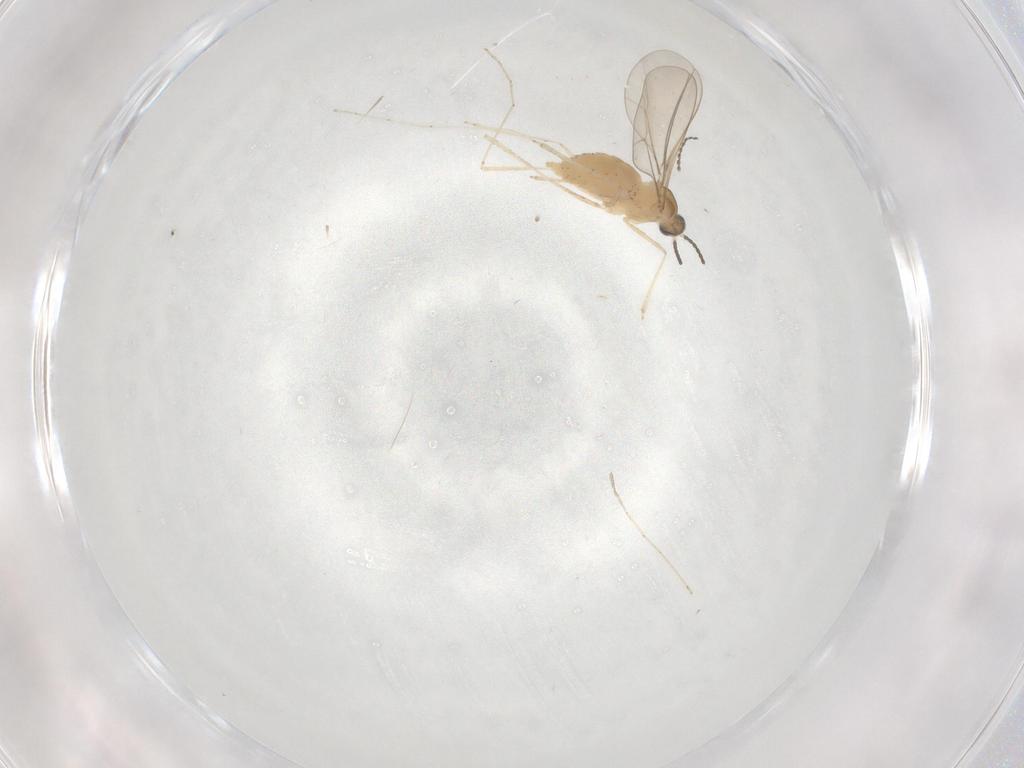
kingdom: Animalia
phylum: Arthropoda
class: Insecta
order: Diptera
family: Cecidomyiidae
